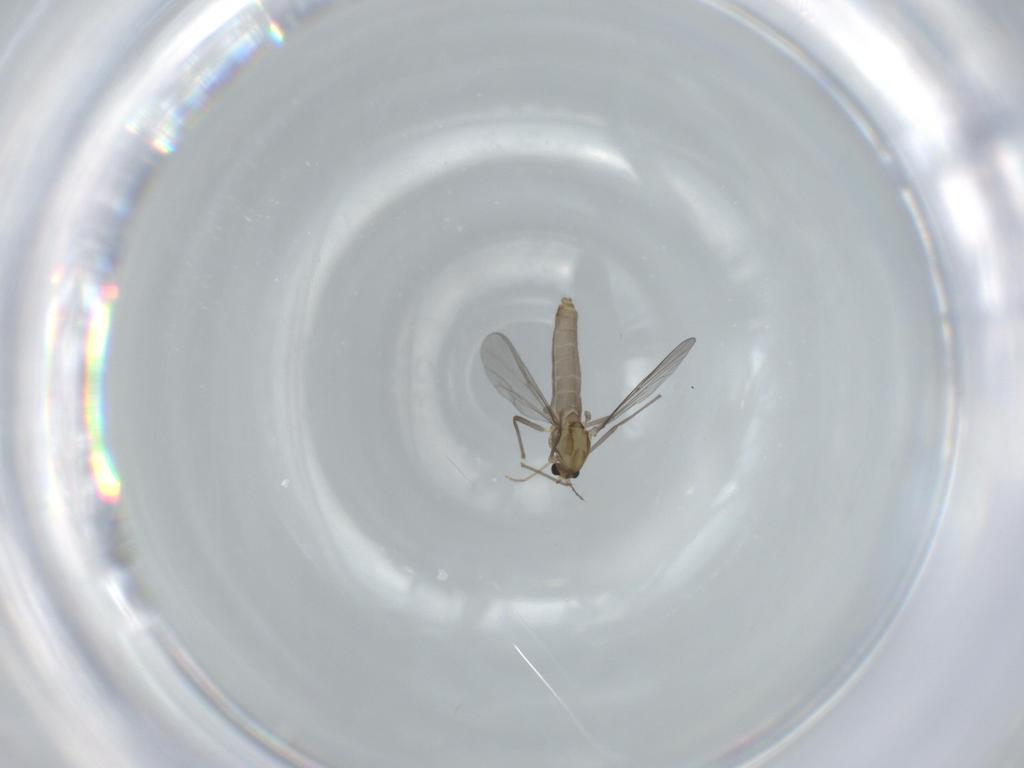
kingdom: Animalia
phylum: Arthropoda
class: Insecta
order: Diptera
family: Chironomidae
